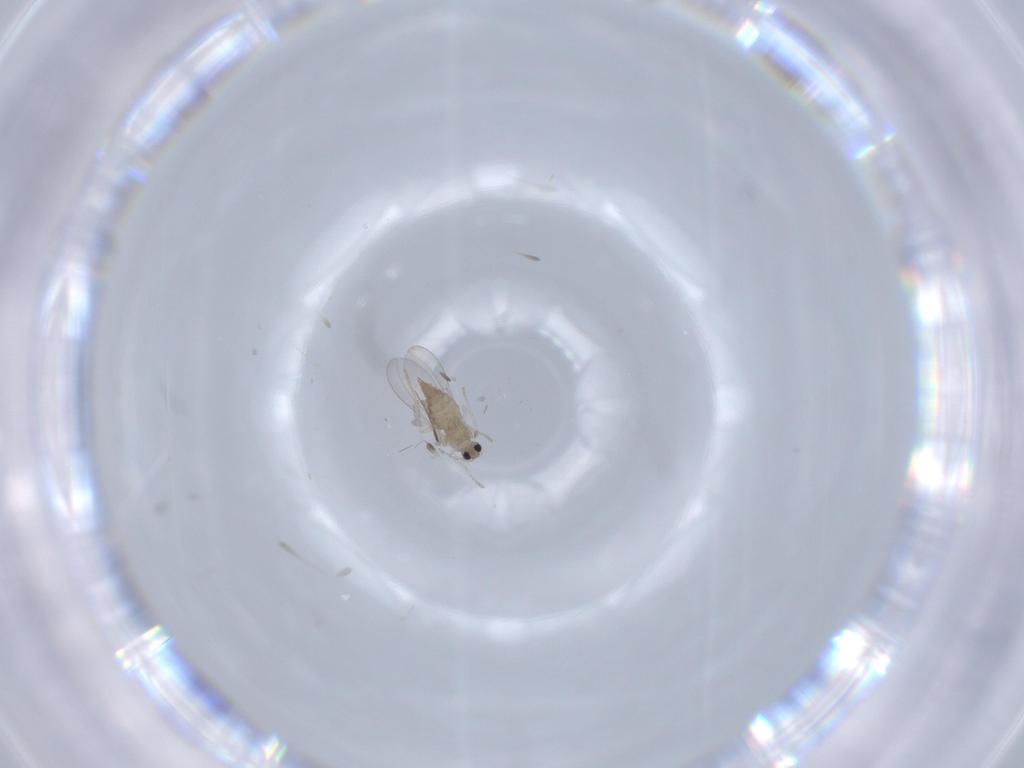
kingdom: Animalia
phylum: Arthropoda
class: Insecta
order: Diptera
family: Cecidomyiidae
